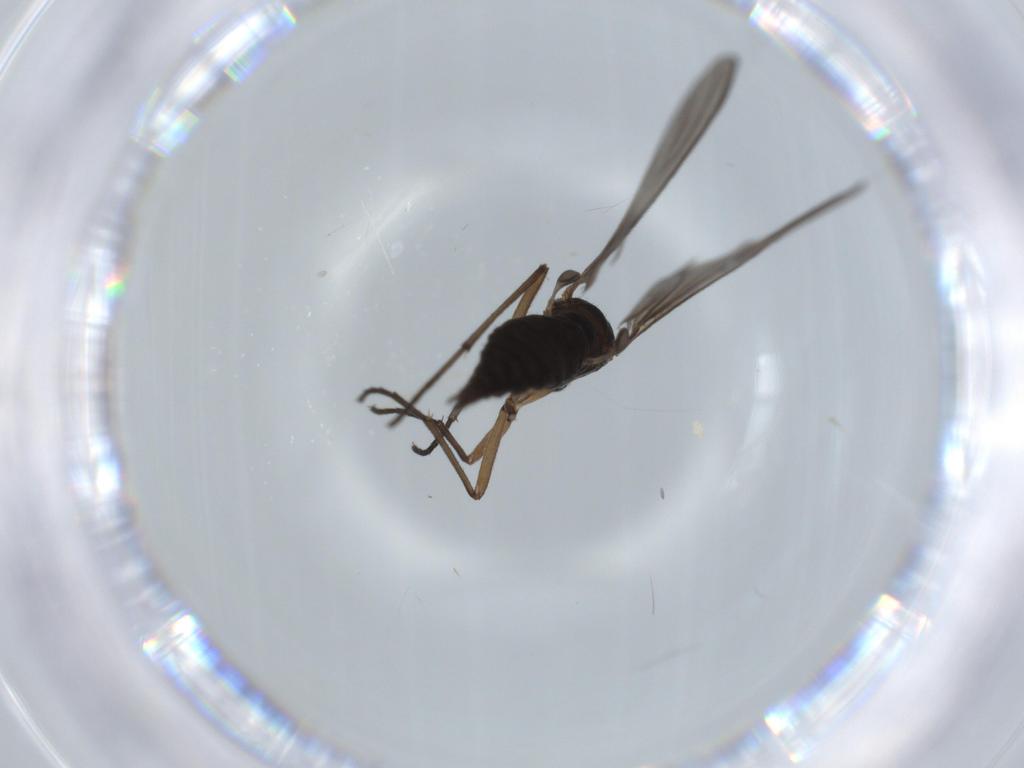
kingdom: Animalia
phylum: Arthropoda
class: Insecta
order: Diptera
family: Sciaridae
